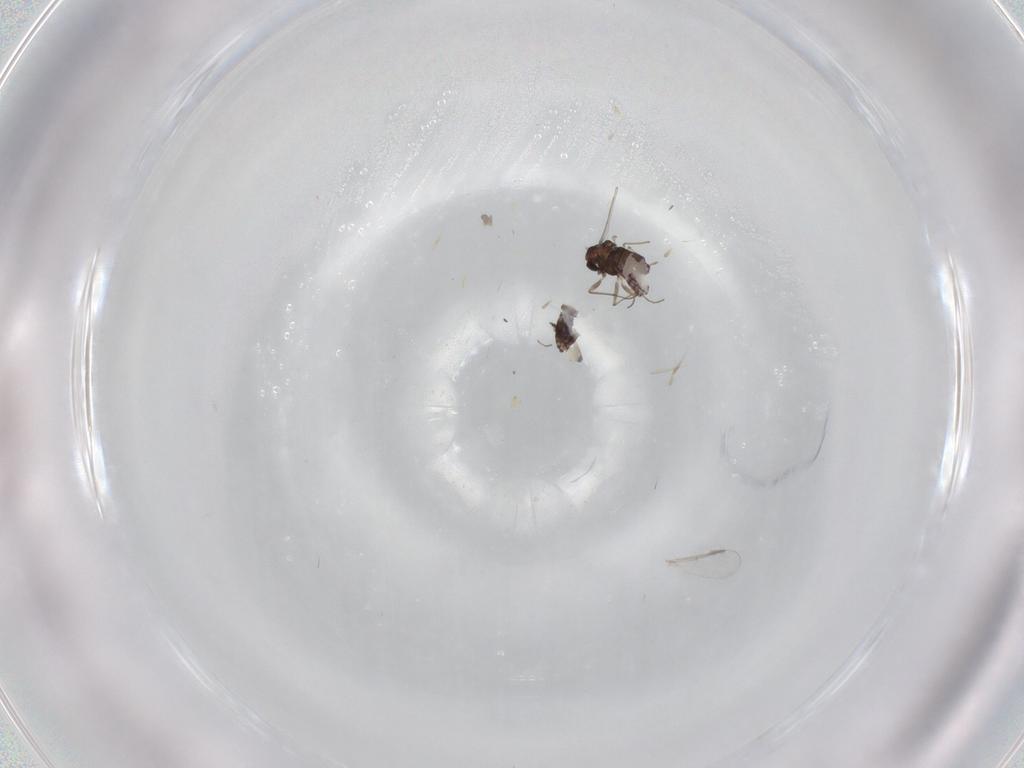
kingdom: Animalia
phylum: Arthropoda
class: Insecta
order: Diptera
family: Chironomidae
